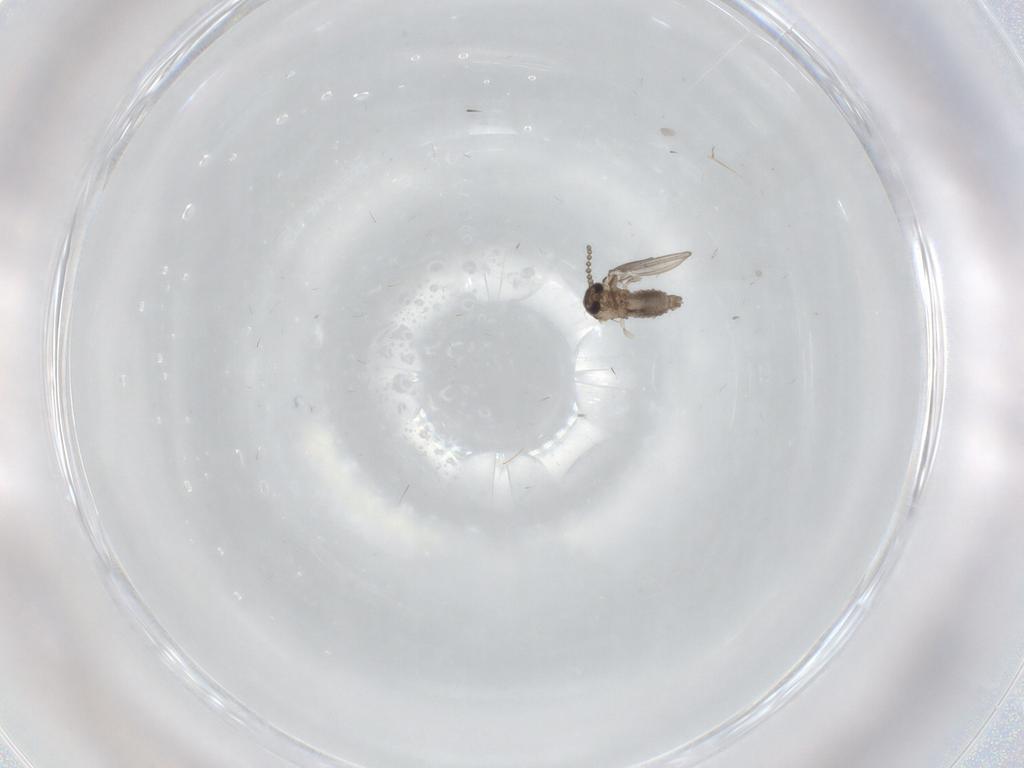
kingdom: Animalia
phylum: Arthropoda
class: Insecta
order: Diptera
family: Psychodidae
